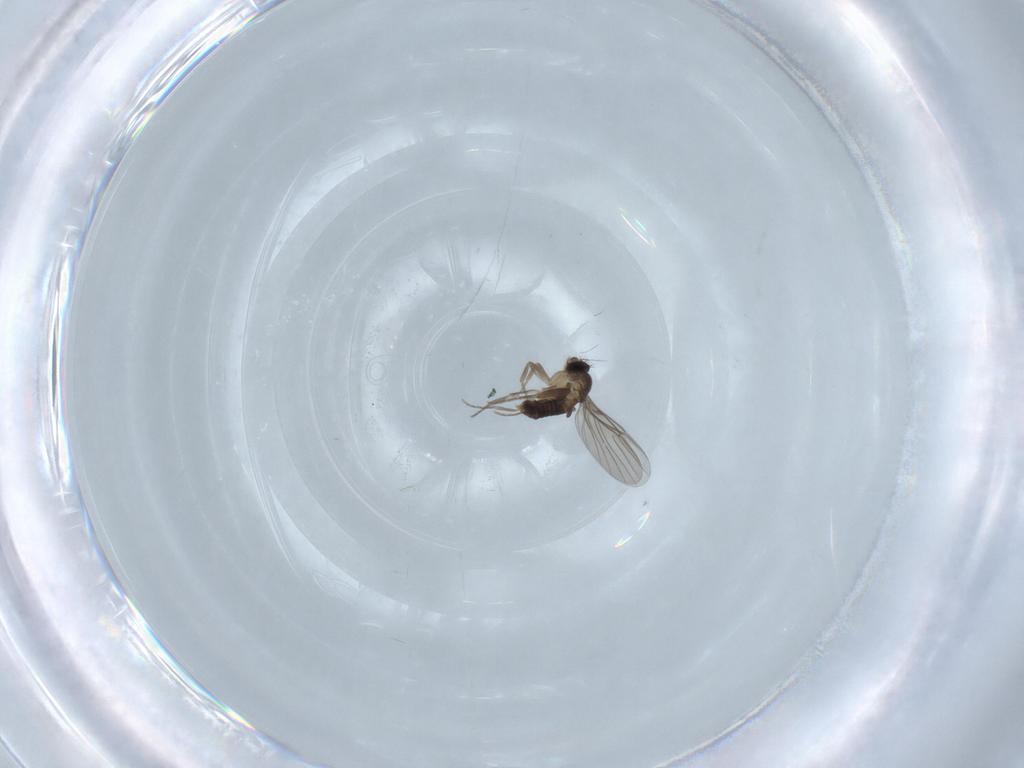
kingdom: Animalia
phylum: Arthropoda
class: Insecta
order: Diptera
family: Phoridae
